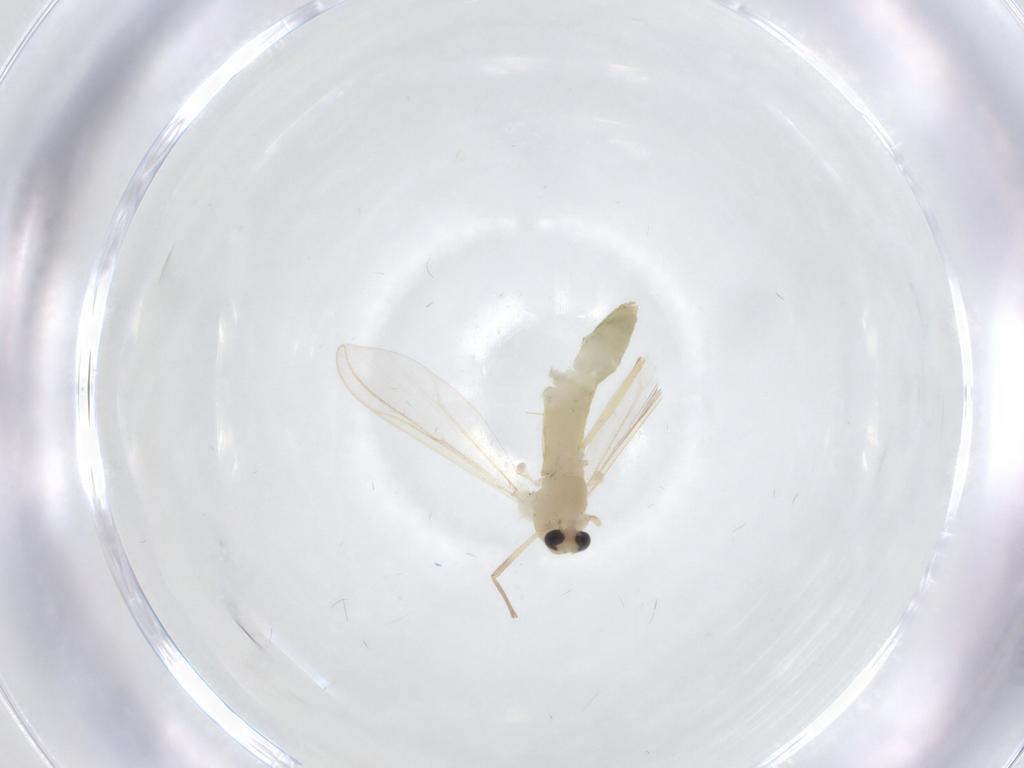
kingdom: Animalia
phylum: Arthropoda
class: Insecta
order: Diptera
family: Chironomidae
